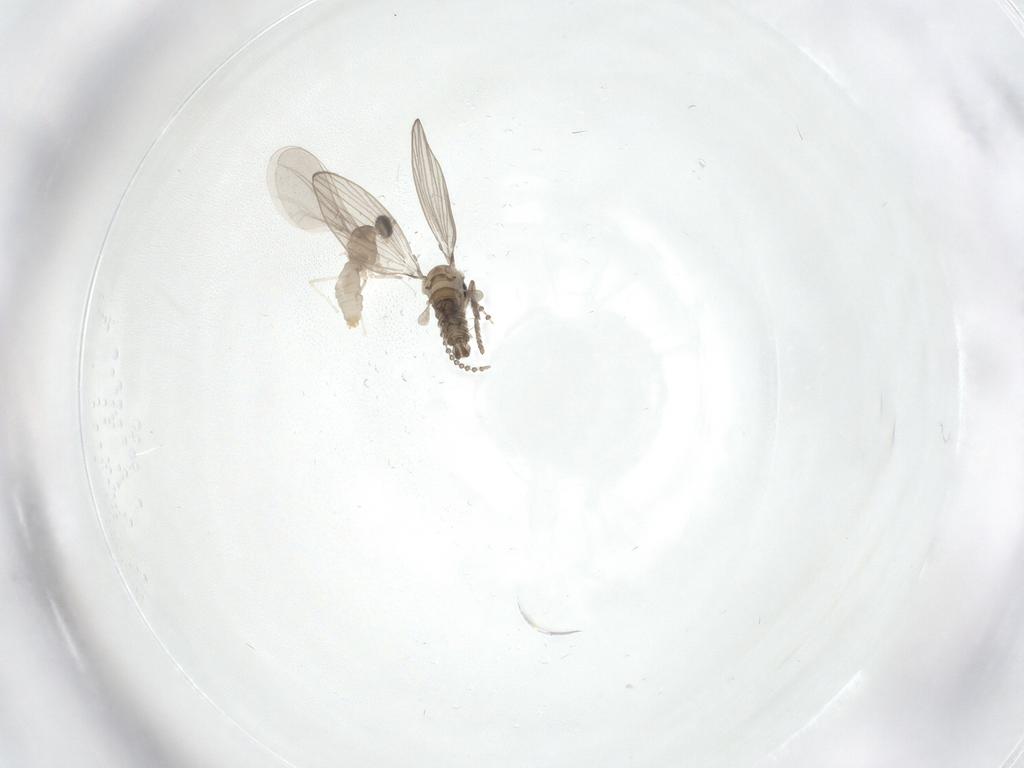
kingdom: Animalia
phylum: Arthropoda
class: Insecta
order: Diptera
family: Cecidomyiidae
